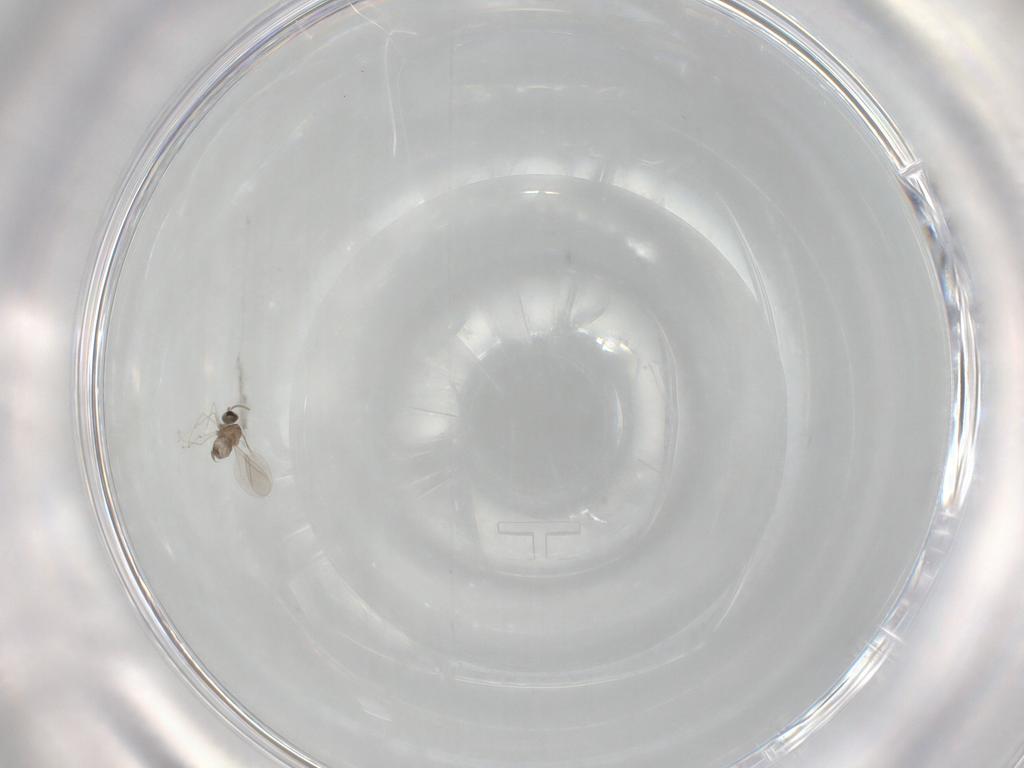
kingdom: Animalia
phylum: Arthropoda
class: Insecta
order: Diptera
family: Cecidomyiidae
